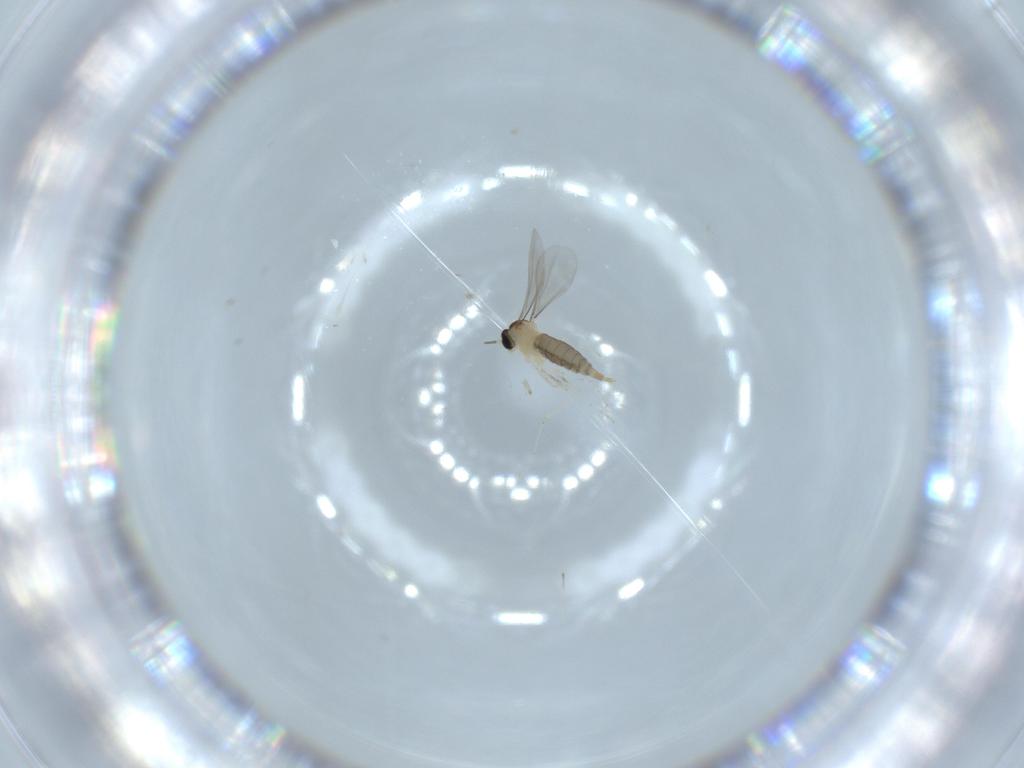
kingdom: Animalia
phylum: Arthropoda
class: Insecta
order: Diptera
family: Cecidomyiidae
